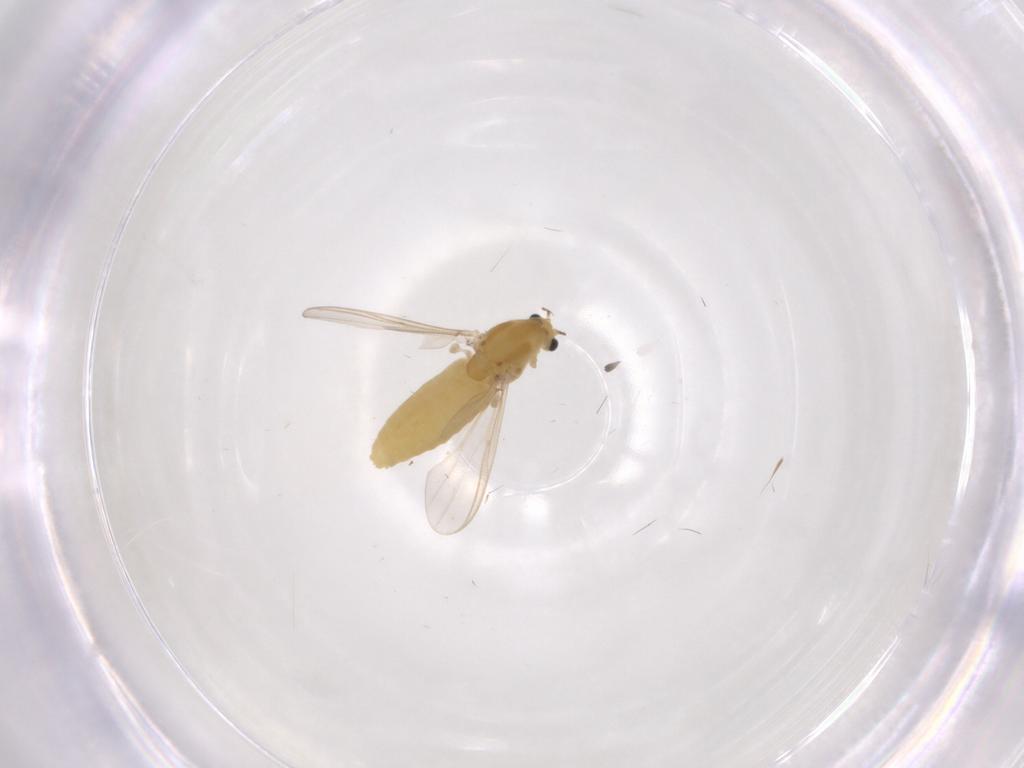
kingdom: Animalia
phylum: Arthropoda
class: Insecta
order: Diptera
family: Chironomidae
